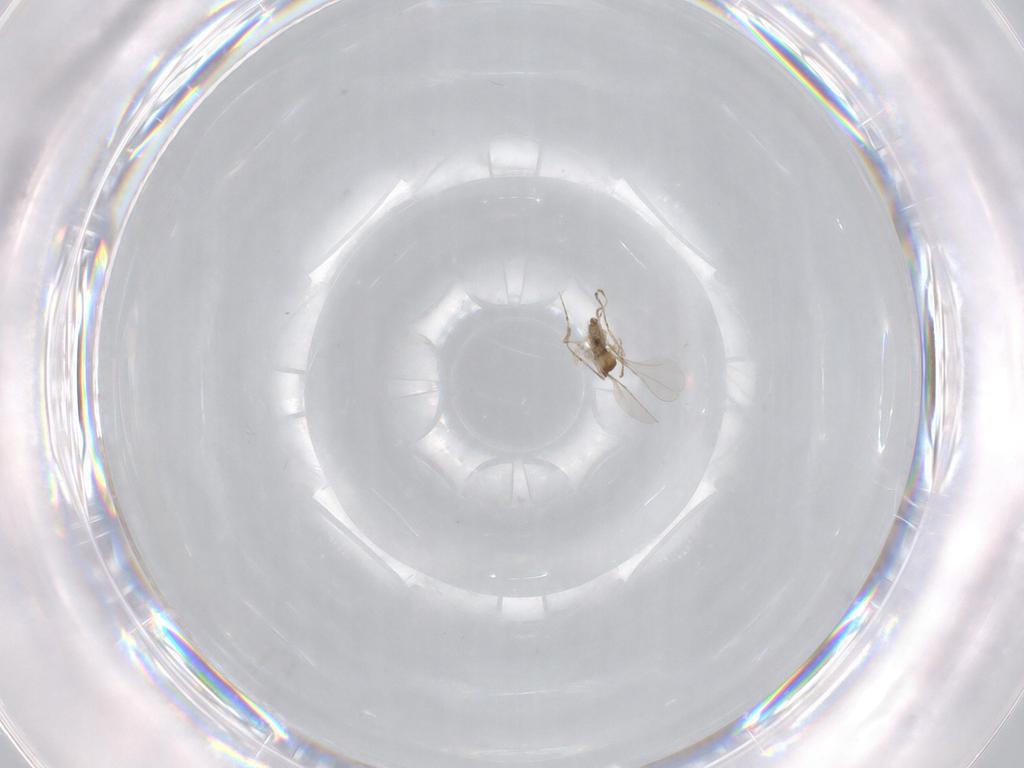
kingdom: Animalia
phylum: Arthropoda
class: Insecta
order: Diptera
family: Cecidomyiidae
